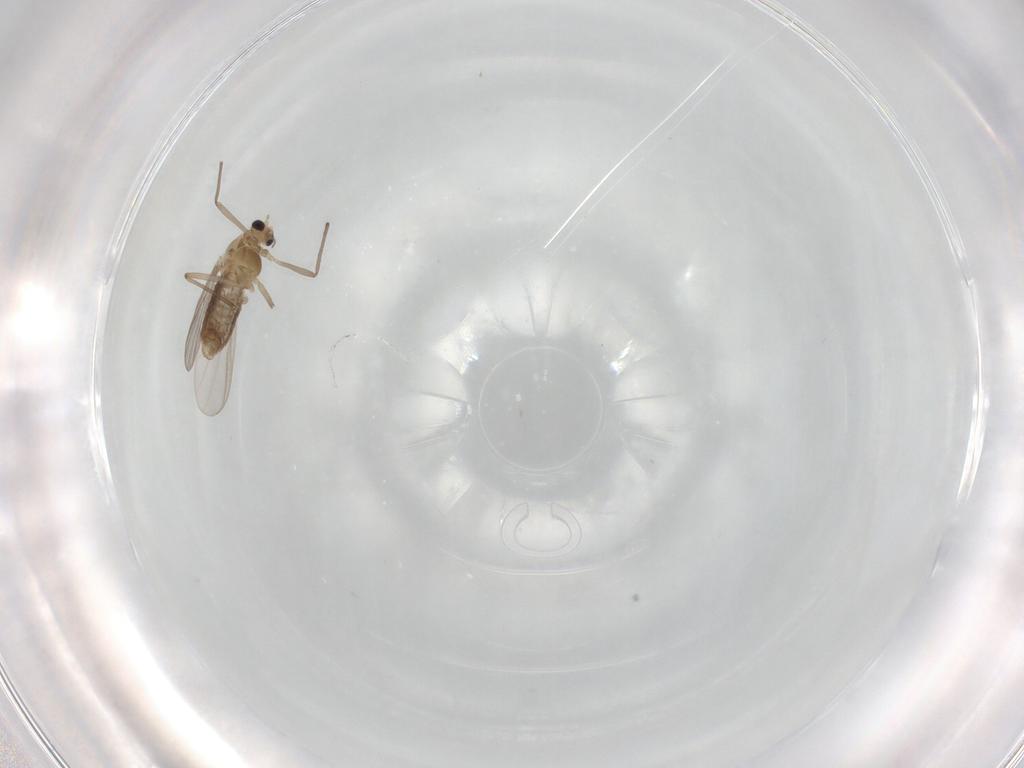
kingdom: Animalia
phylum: Arthropoda
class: Insecta
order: Diptera
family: Chironomidae
